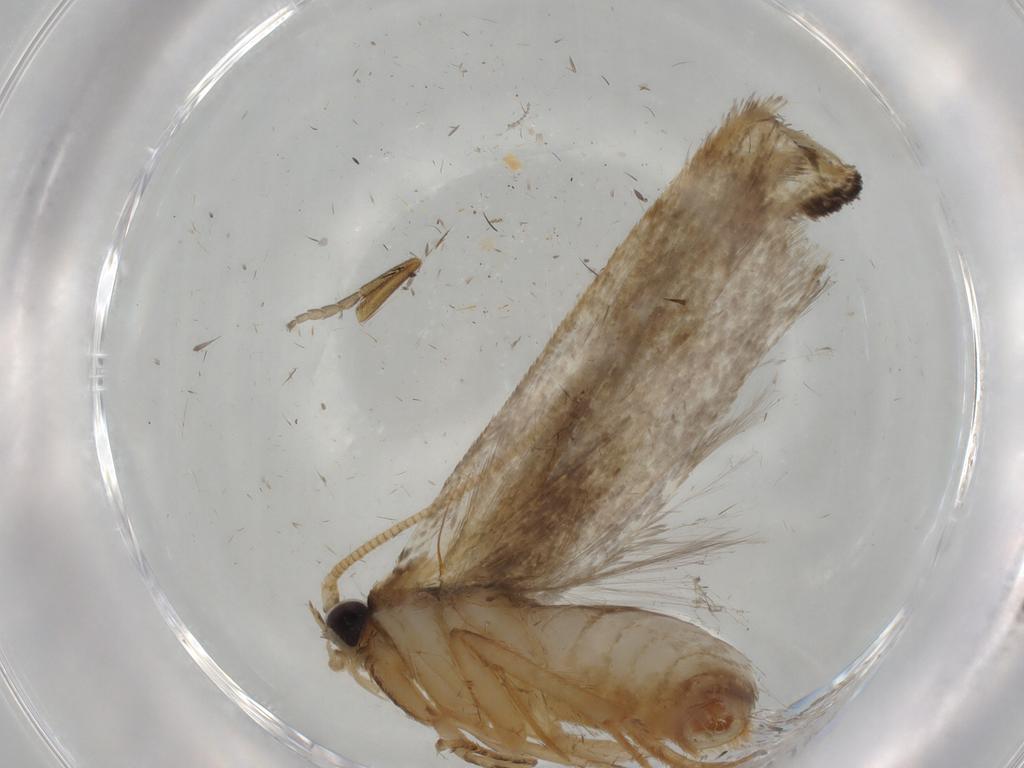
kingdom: Animalia
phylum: Arthropoda
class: Insecta
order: Lepidoptera
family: Tineidae
